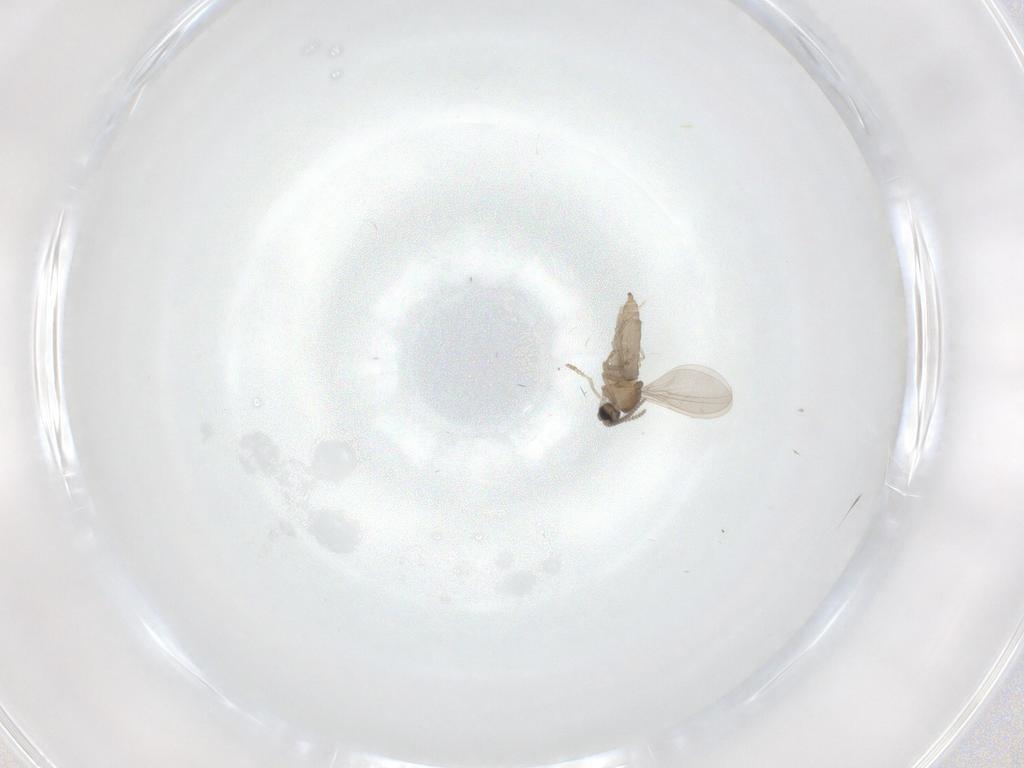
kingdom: Animalia
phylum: Arthropoda
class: Insecta
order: Diptera
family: Cecidomyiidae
